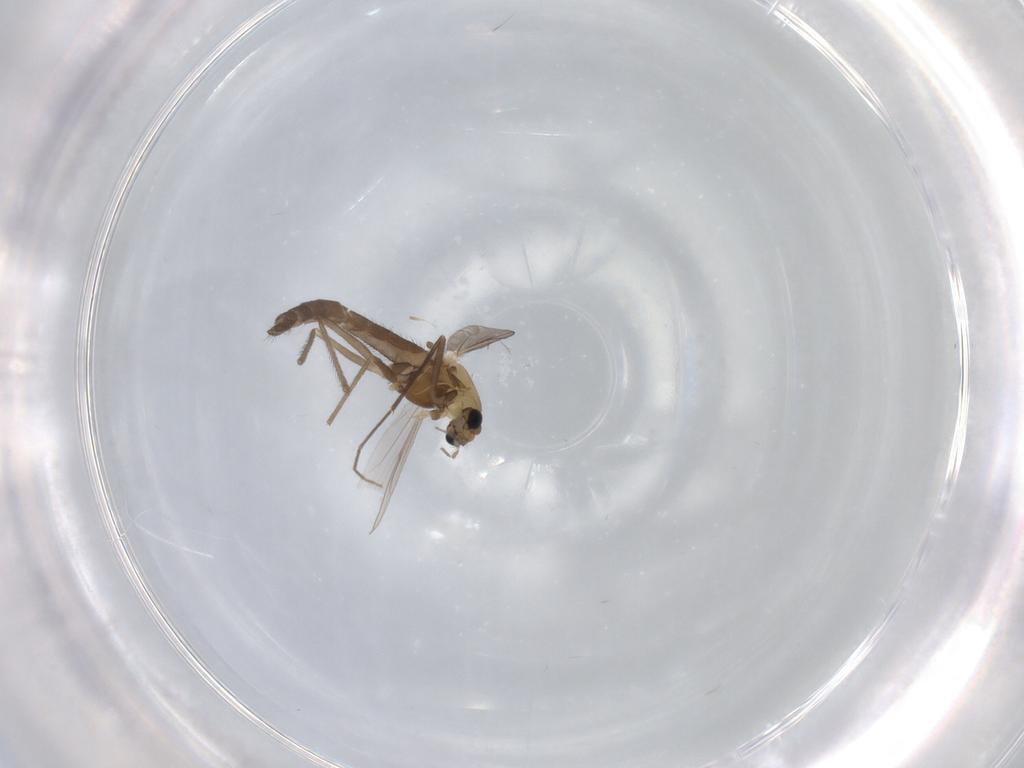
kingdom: Animalia
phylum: Arthropoda
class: Insecta
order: Diptera
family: Chironomidae
